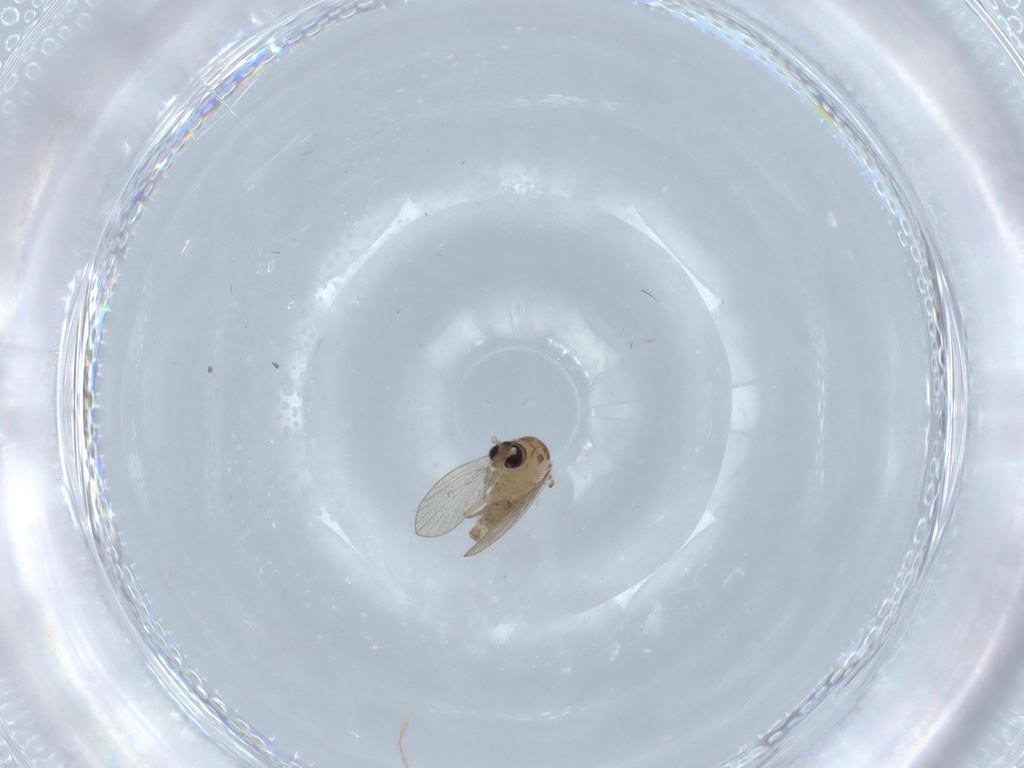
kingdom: Animalia
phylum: Arthropoda
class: Insecta
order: Diptera
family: Psychodidae
